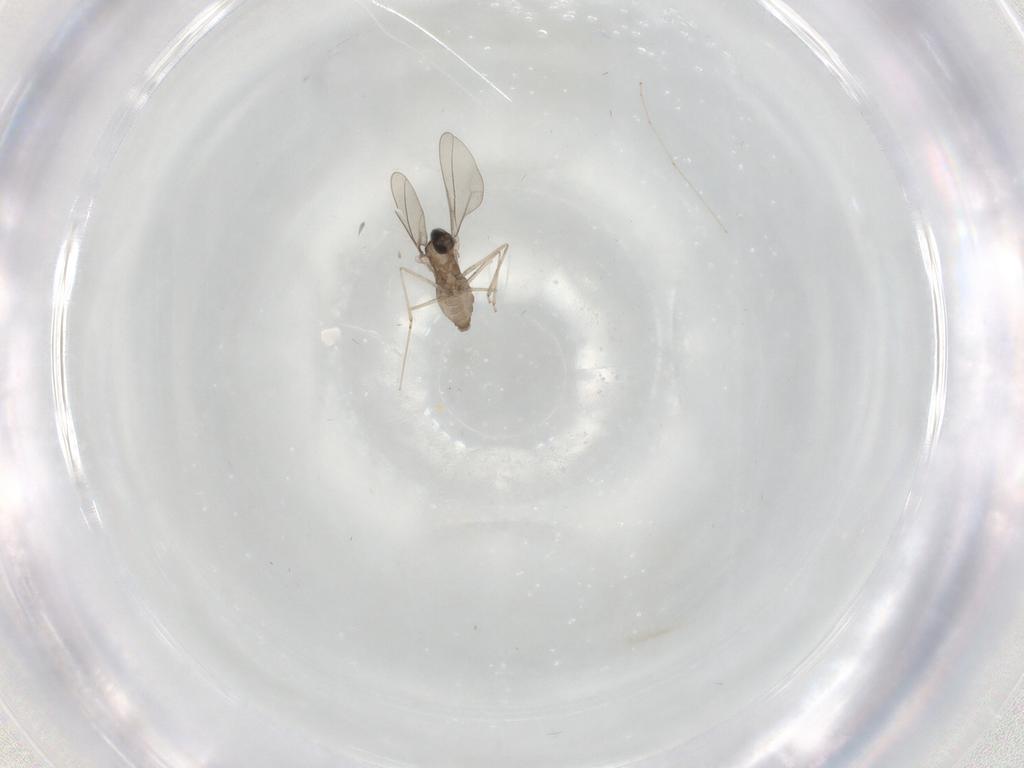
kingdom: Animalia
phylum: Arthropoda
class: Insecta
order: Diptera
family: Cecidomyiidae
